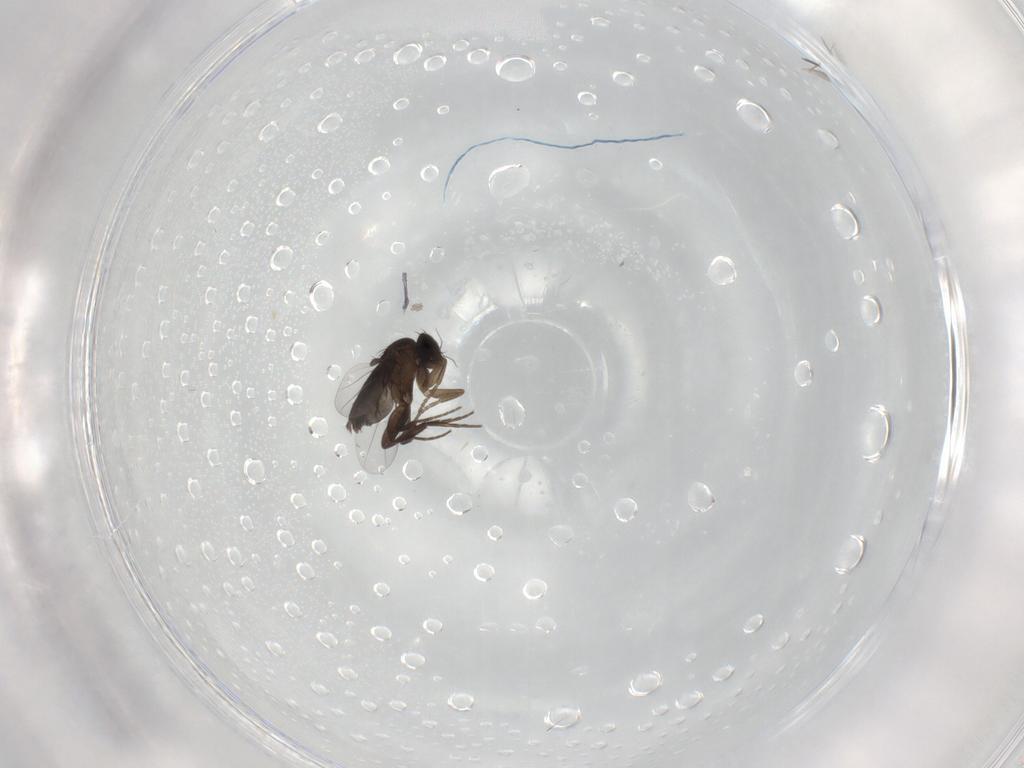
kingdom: Animalia
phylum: Arthropoda
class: Insecta
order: Diptera
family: Phoridae
